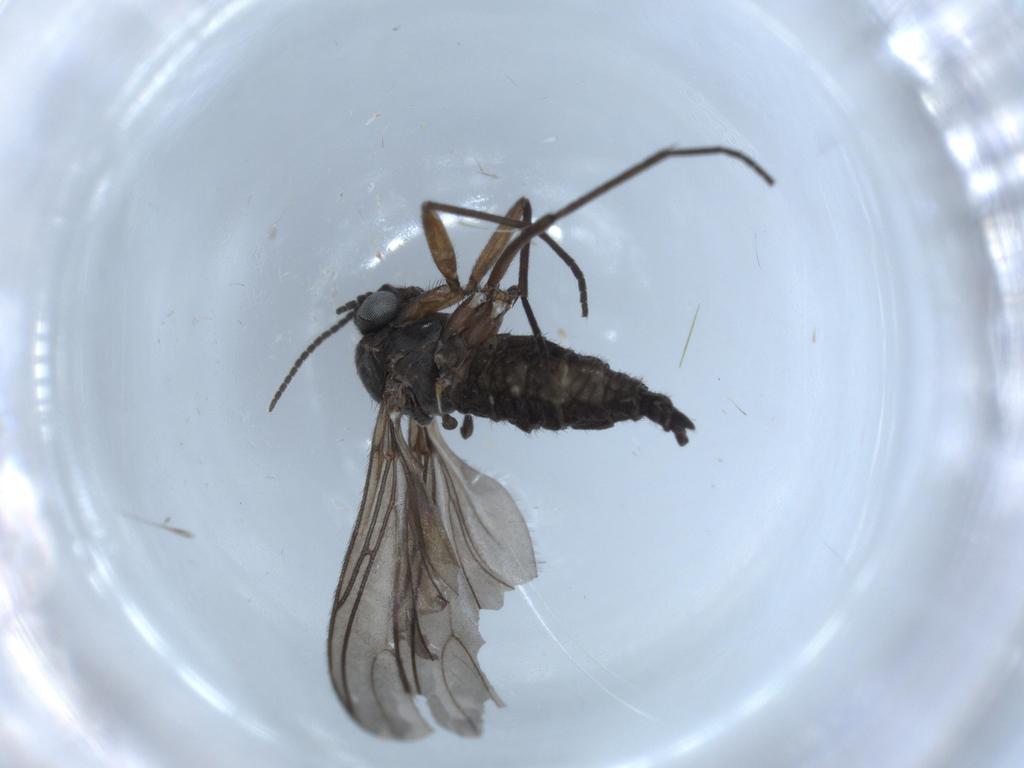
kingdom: Animalia
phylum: Arthropoda
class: Insecta
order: Diptera
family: Sciaridae
